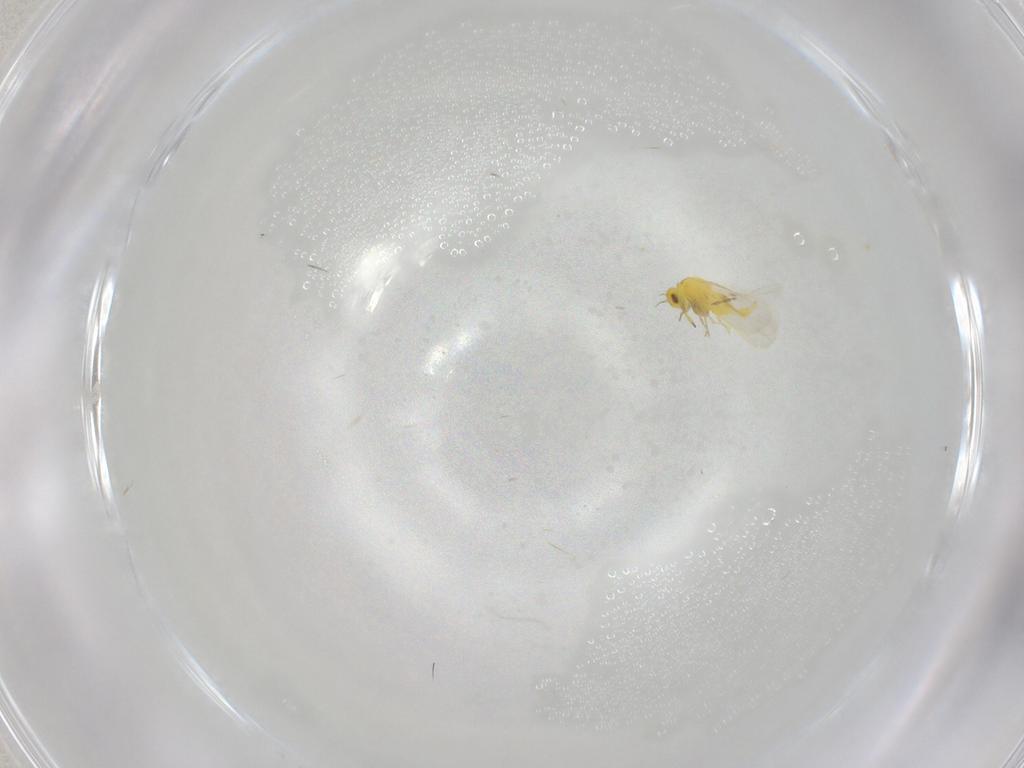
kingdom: Animalia
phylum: Arthropoda
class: Insecta
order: Hemiptera
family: Aleyrodidae
